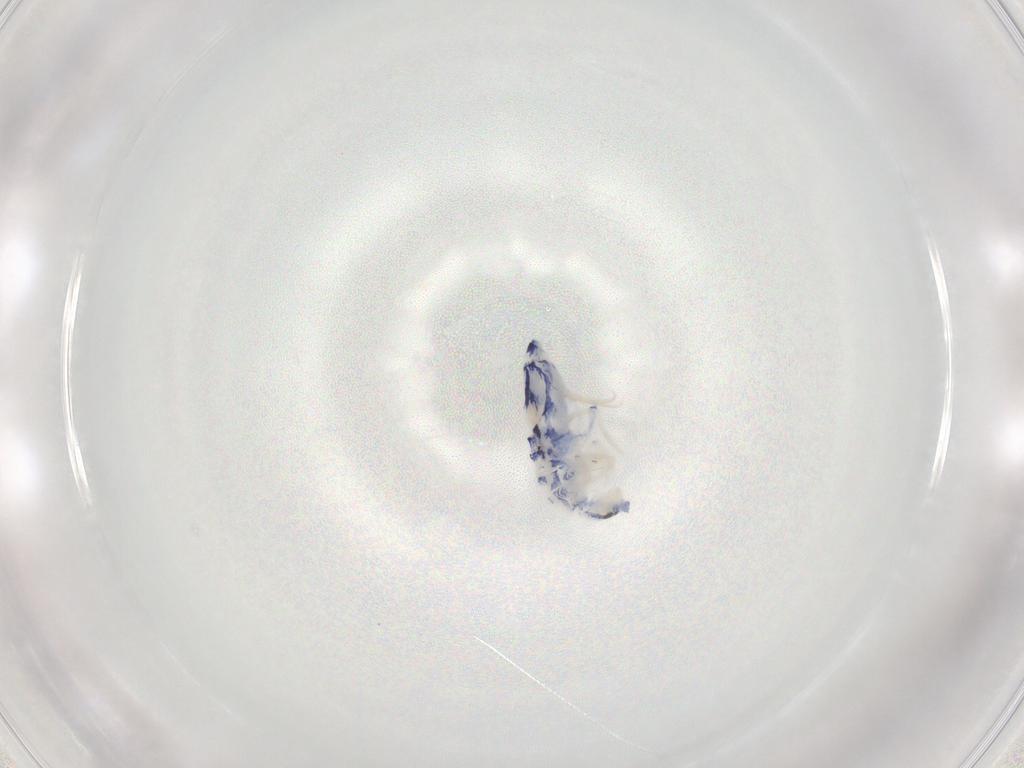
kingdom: Animalia
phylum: Arthropoda
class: Collembola
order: Entomobryomorpha
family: Entomobryidae
